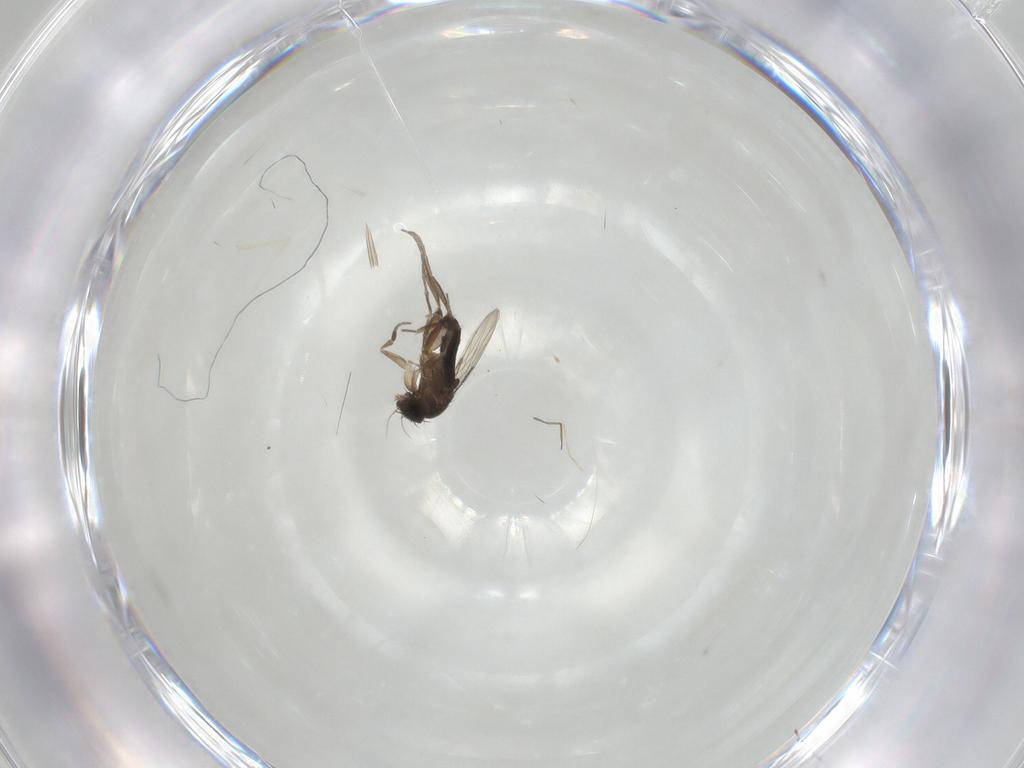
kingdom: Animalia
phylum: Arthropoda
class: Insecta
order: Diptera
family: Phoridae
